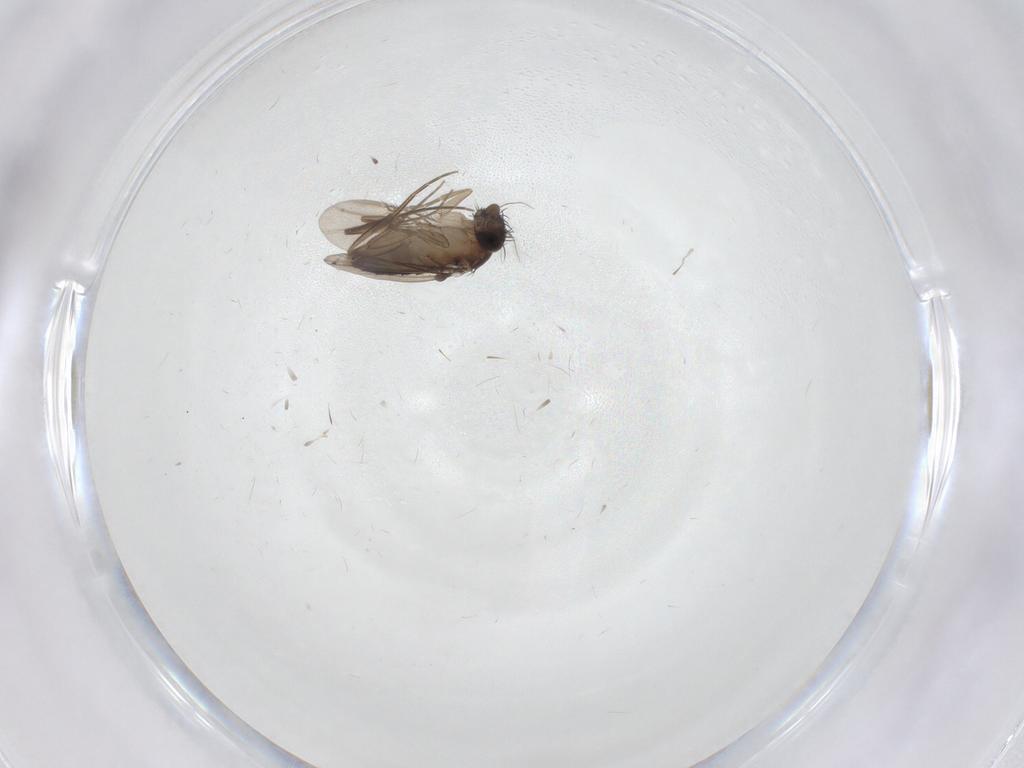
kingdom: Animalia
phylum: Arthropoda
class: Insecta
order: Diptera
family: Phoridae
